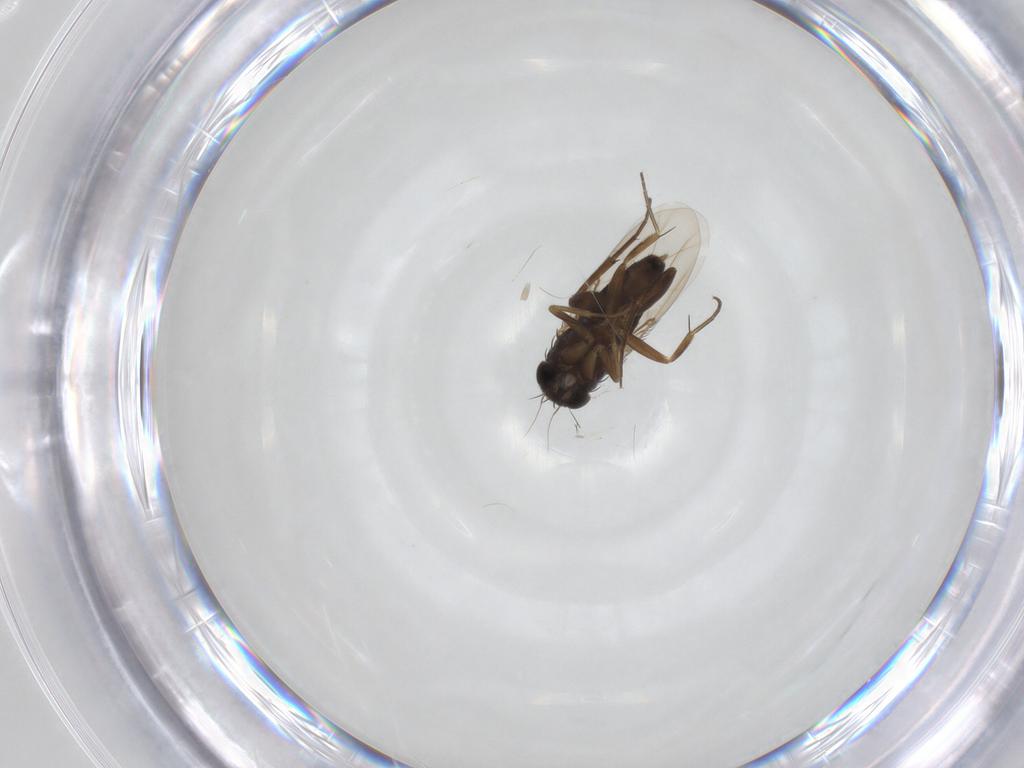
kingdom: Animalia
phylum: Arthropoda
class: Insecta
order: Diptera
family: Phoridae
